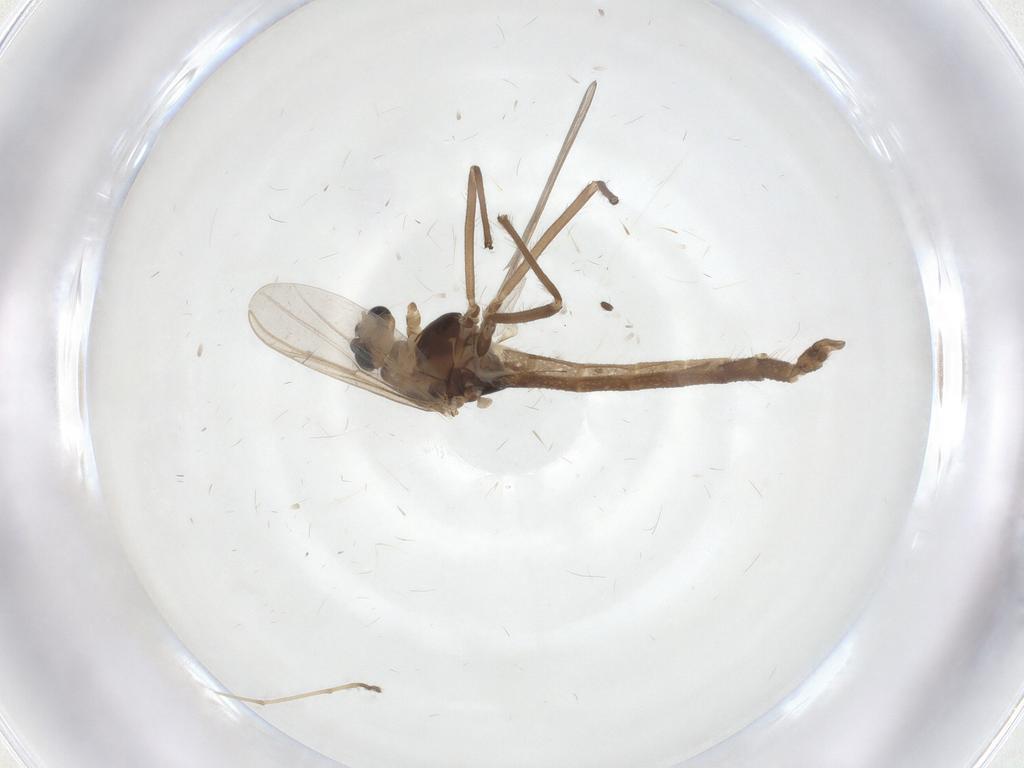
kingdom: Animalia
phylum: Arthropoda
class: Insecta
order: Diptera
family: Chironomidae
